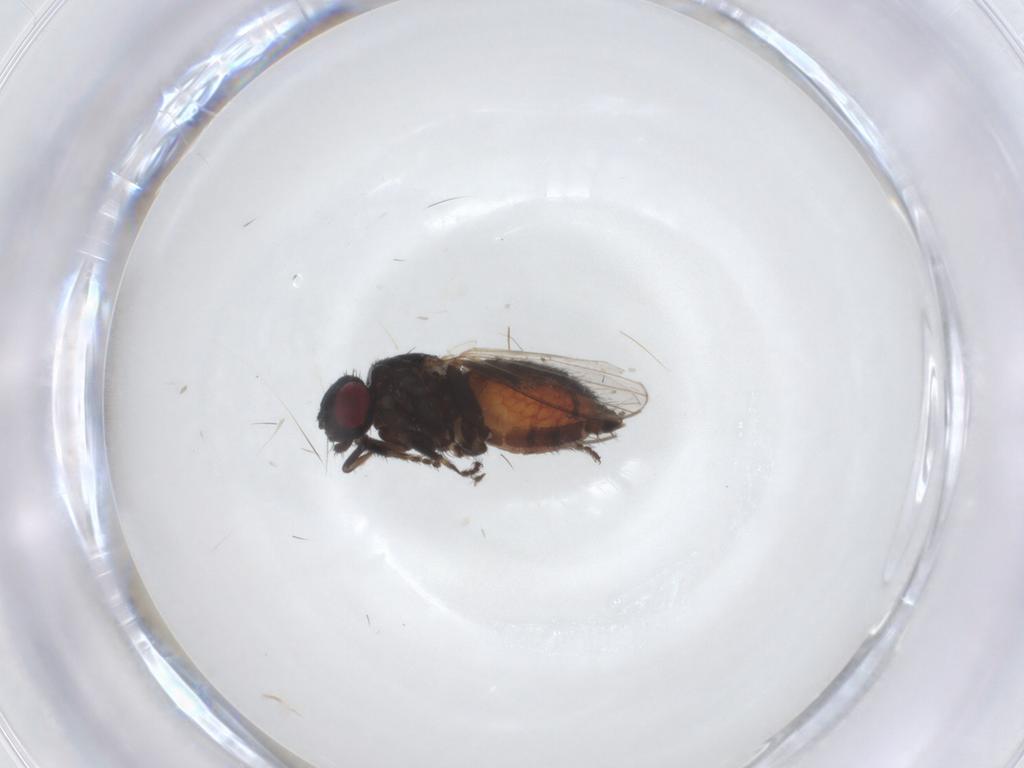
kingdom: Animalia
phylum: Arthropoda
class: Insecta
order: Diptera
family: Milichiidae
